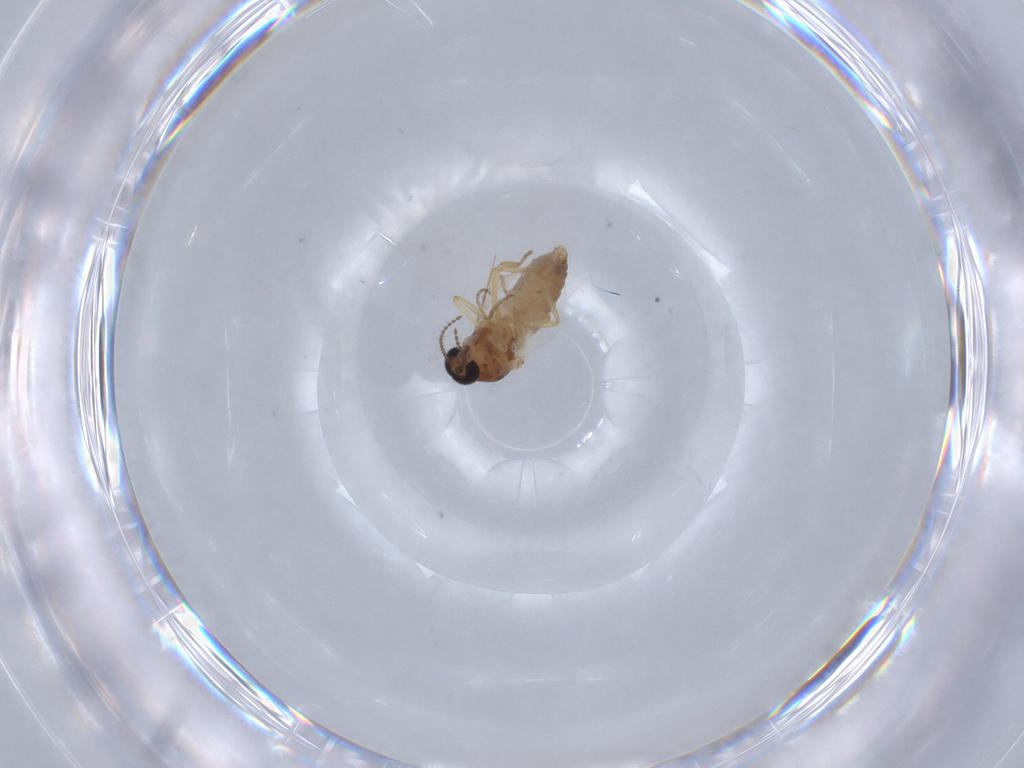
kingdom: Animalia
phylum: Arthropoda
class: Insecta
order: Diptera
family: Ceratopogonidae
